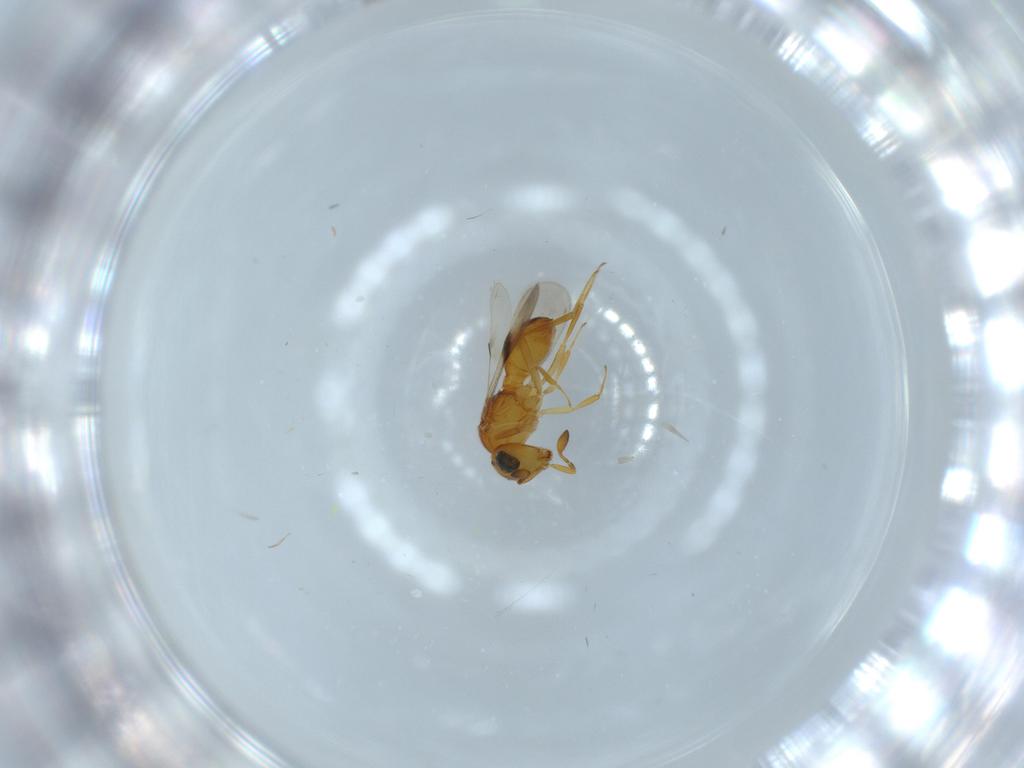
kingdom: Animalia
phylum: Arthropoda
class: Insecta
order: Hymenoptera
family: Scelionidae
